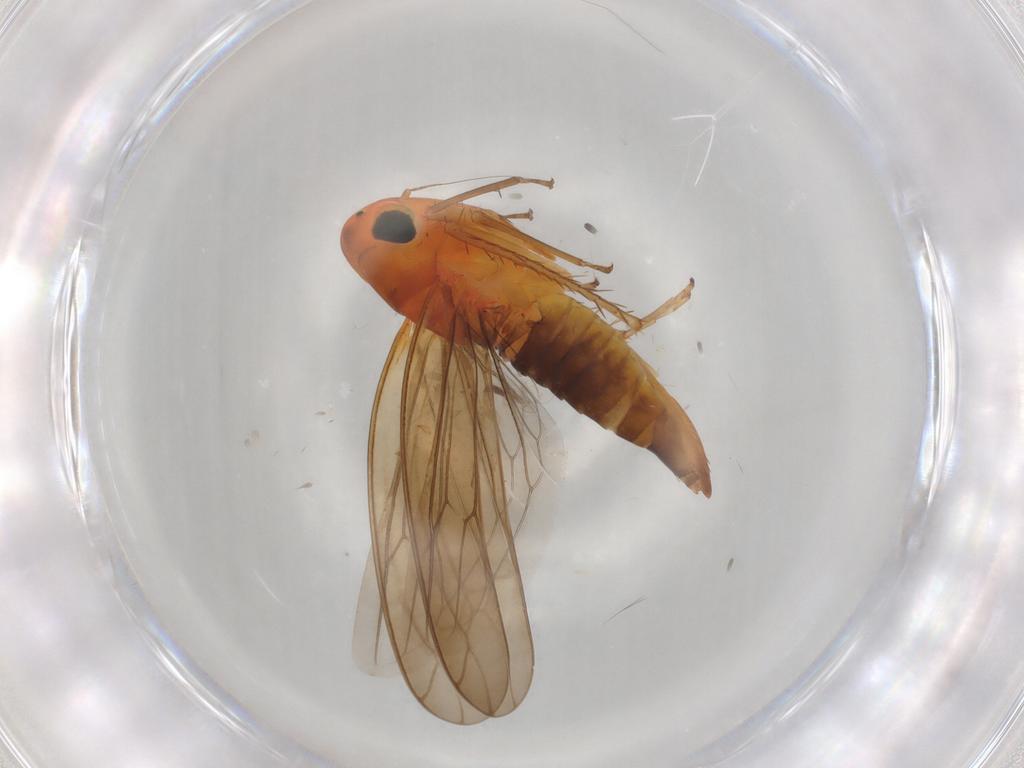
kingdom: Animalia
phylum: Arthropoda
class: Insecta
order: Hemiptera
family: Cicadellidae
